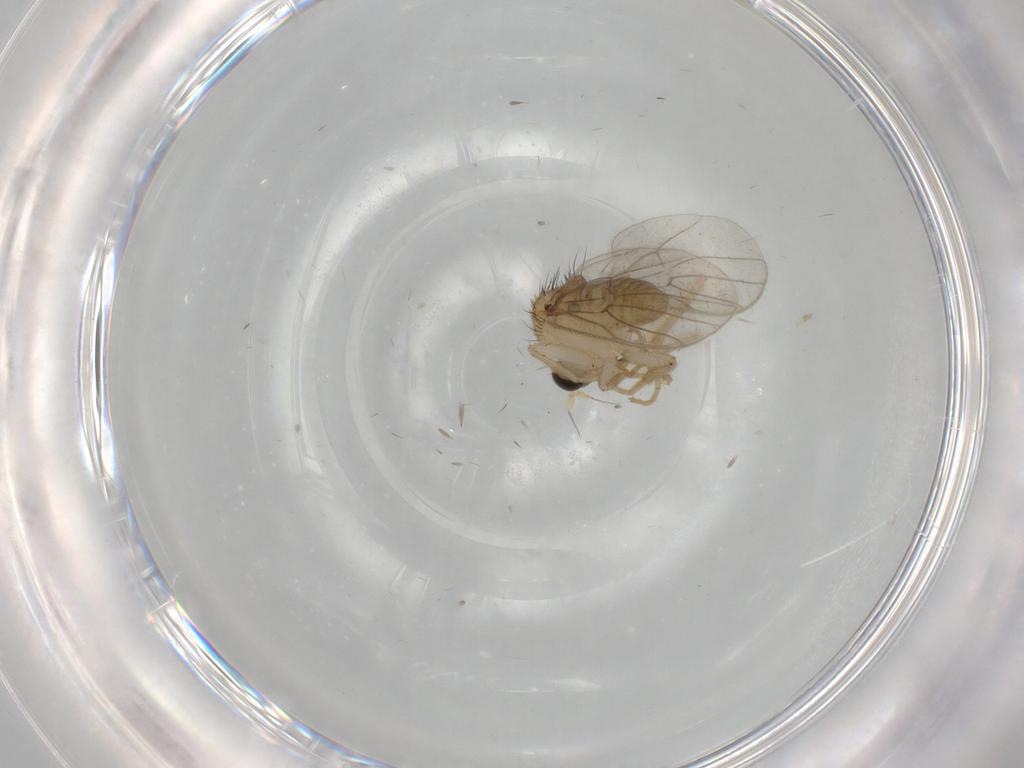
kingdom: Animalia
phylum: Arthropoda
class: Insecta
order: Diptera
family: Hybotidae
